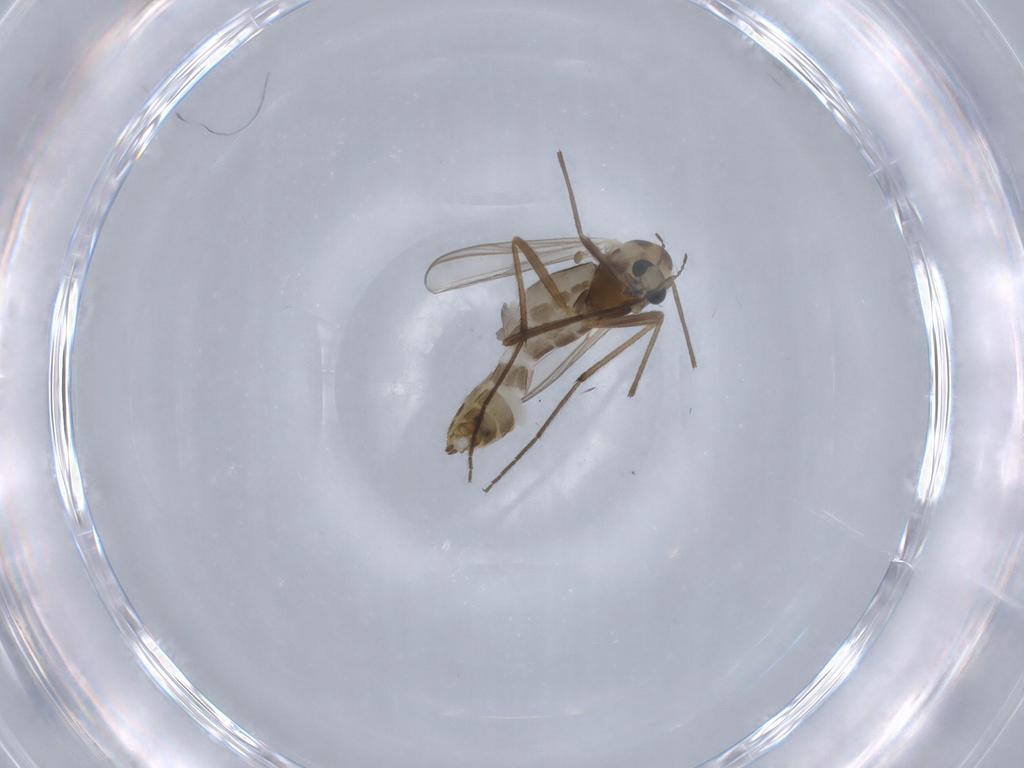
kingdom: Animalia
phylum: Arthropoda
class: Insecta
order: Diptera
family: Chironomidae
